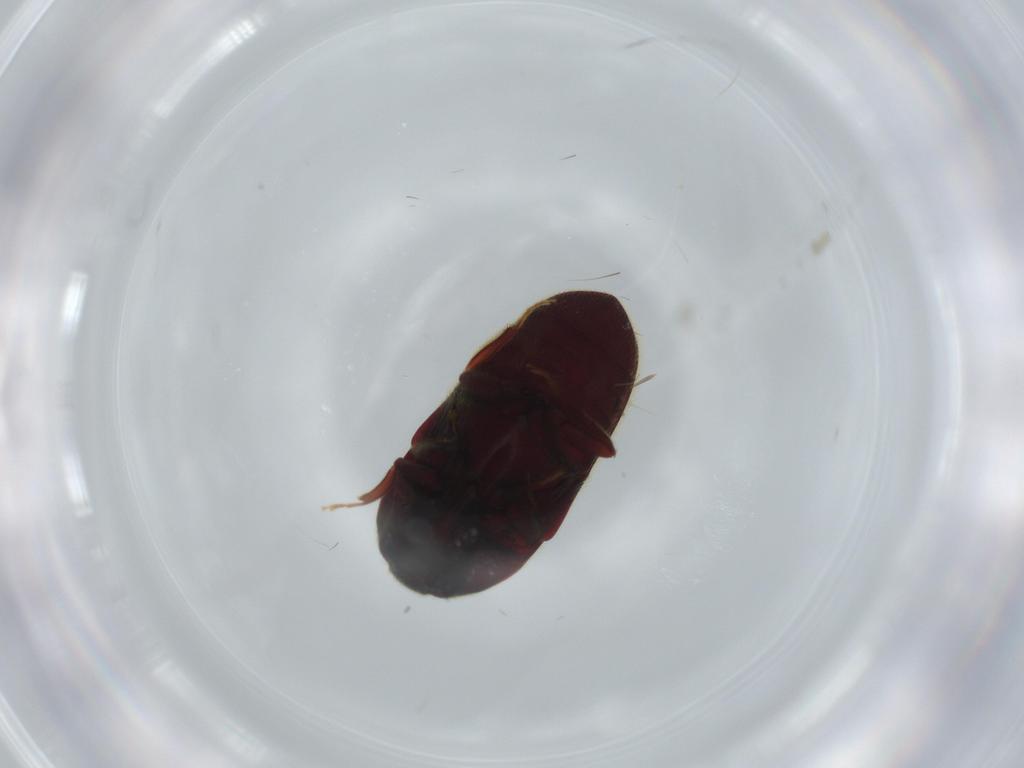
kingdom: Animalia
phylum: Arthropoda
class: Insecta
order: Coleoptera
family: Throscidae
